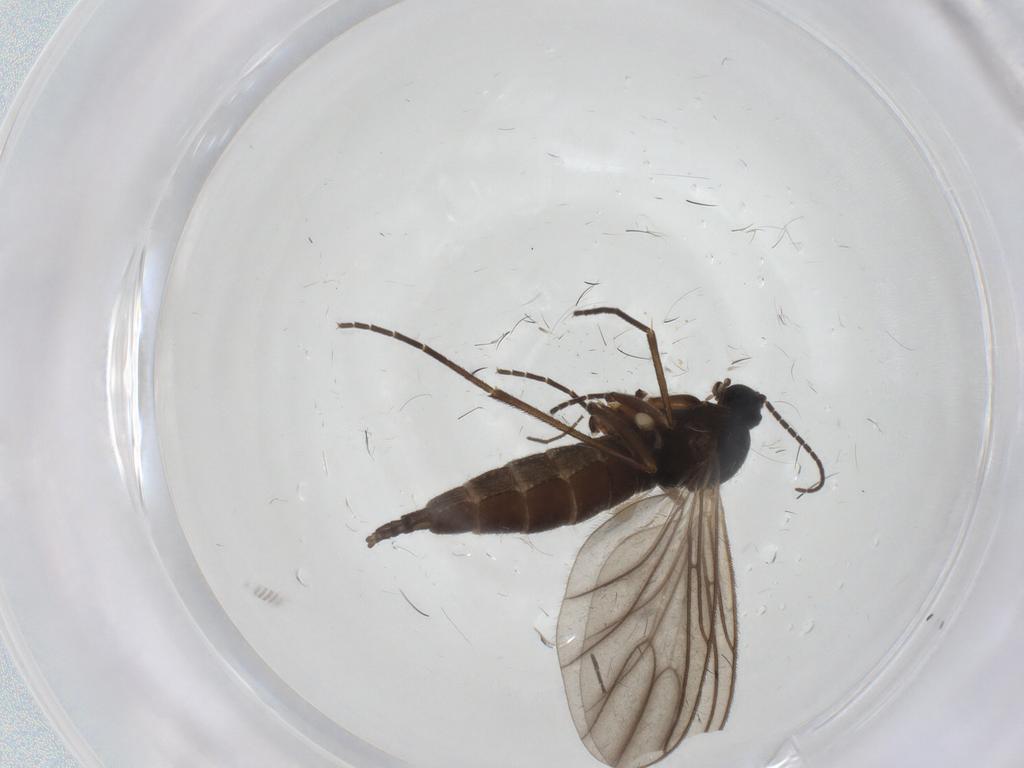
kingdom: Animalia
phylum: Arthropoda
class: Insecta
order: Diptera
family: Sciaridae
